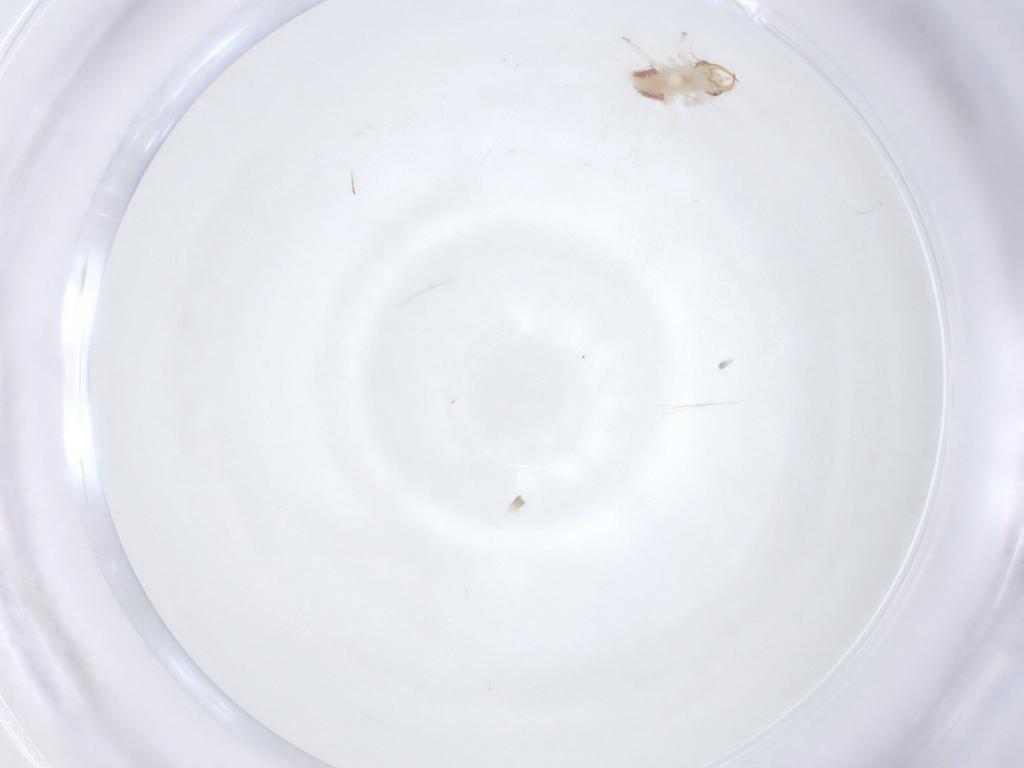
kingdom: Animalia
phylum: Arthropoda
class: Insecta
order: Neuroptera
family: Chrysopidae
